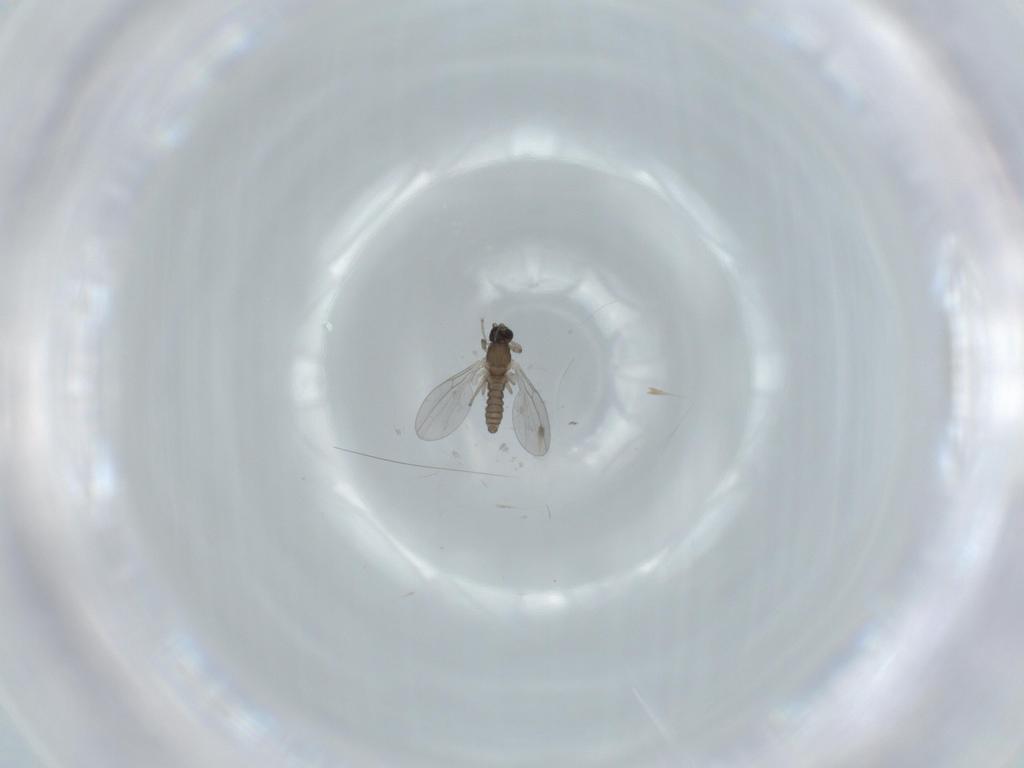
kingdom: Animalia
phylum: Arthropoda
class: Insecta
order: Diptera
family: Cecidomyiidae
